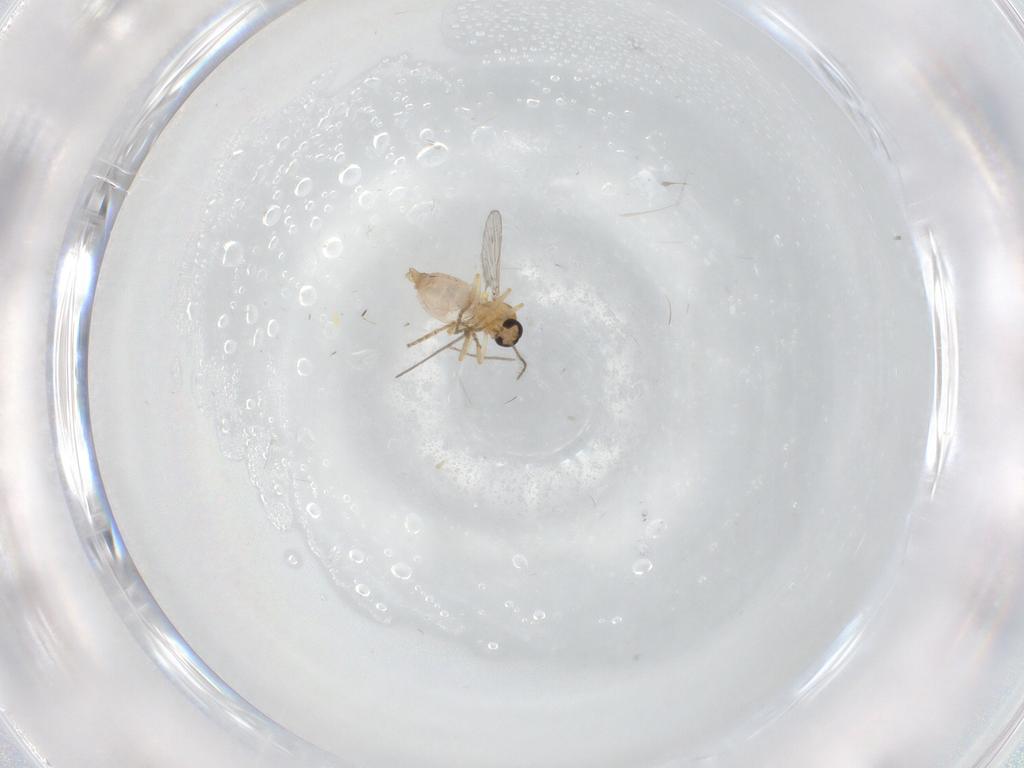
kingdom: Animalia
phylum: Arthropoda
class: Insecta
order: Diptera
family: Ceratopogonidae
